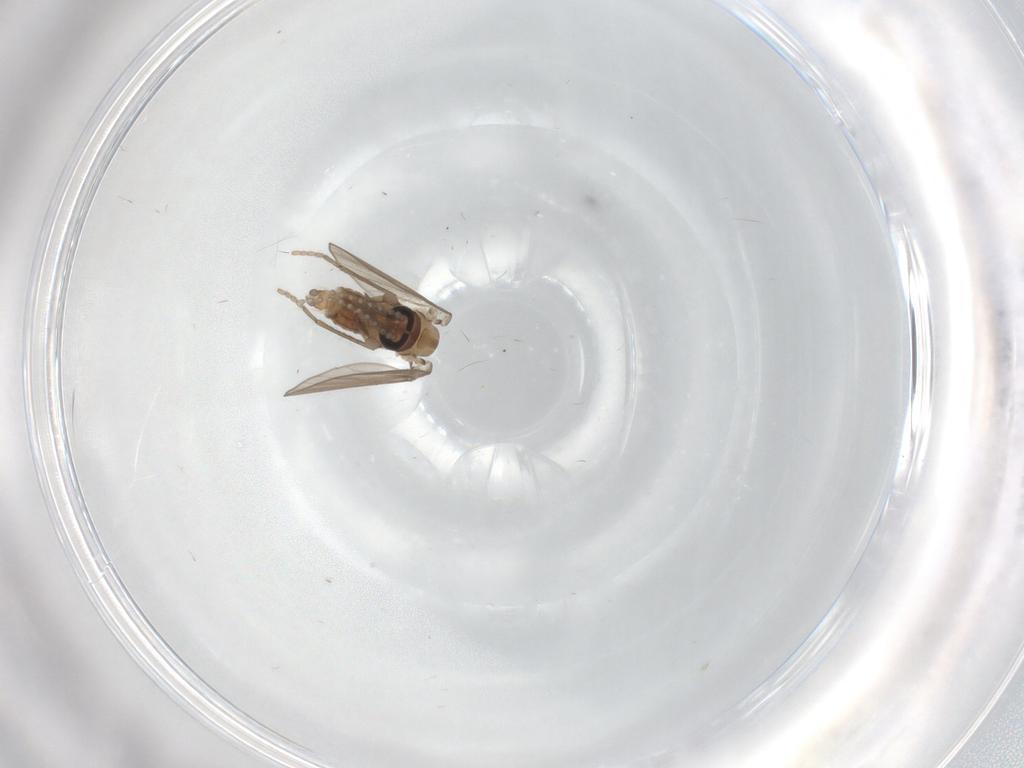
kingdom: Animalia
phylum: Arthropoda
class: Insecta
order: Diptera
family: Psychodidae
